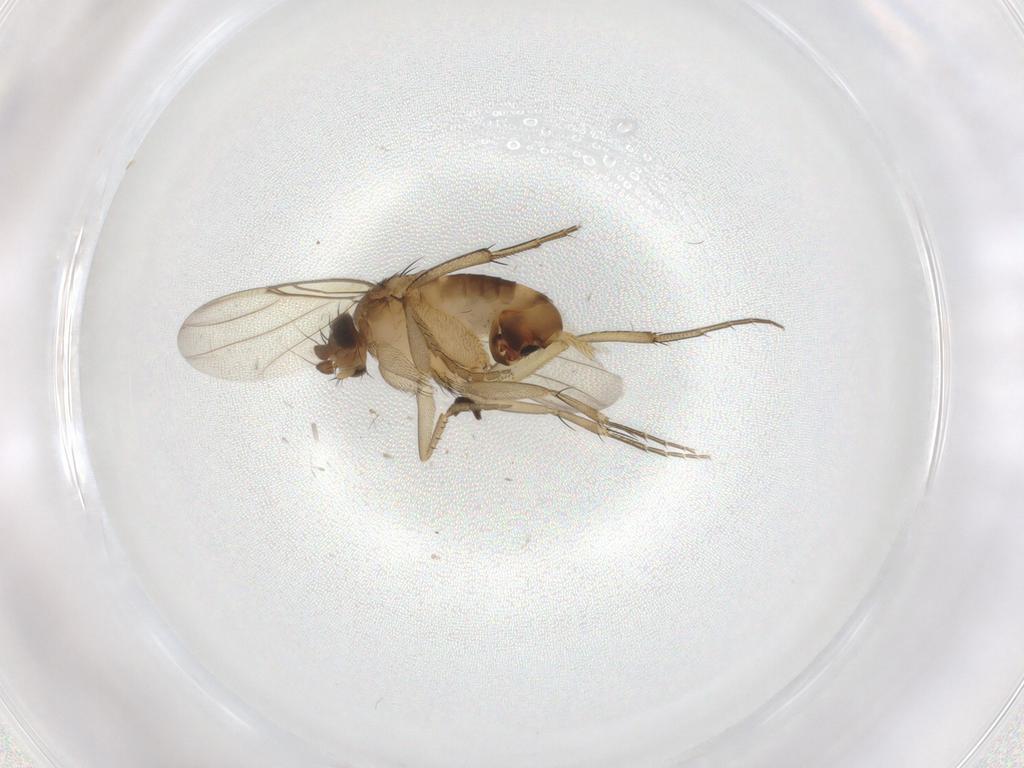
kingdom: Animalia
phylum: Arthropoda
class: Insecta
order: Diptera
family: Phoridae
